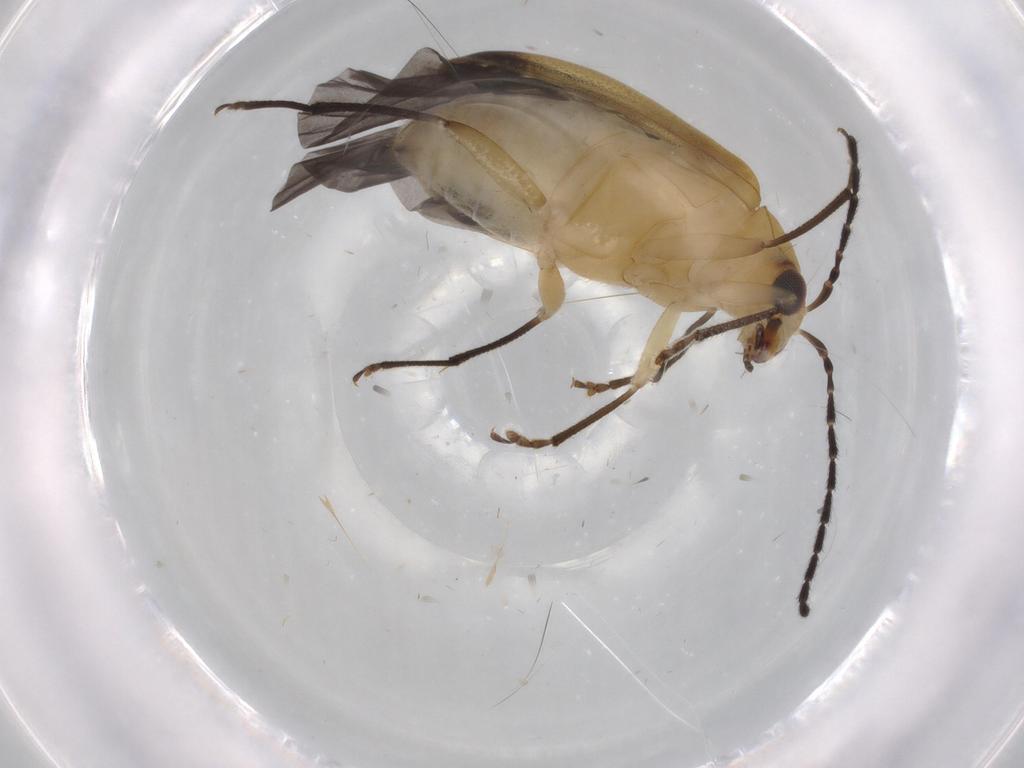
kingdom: Animalia
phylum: Arthropoda
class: Insecta
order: Coleoptera
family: Chrysomelidae
